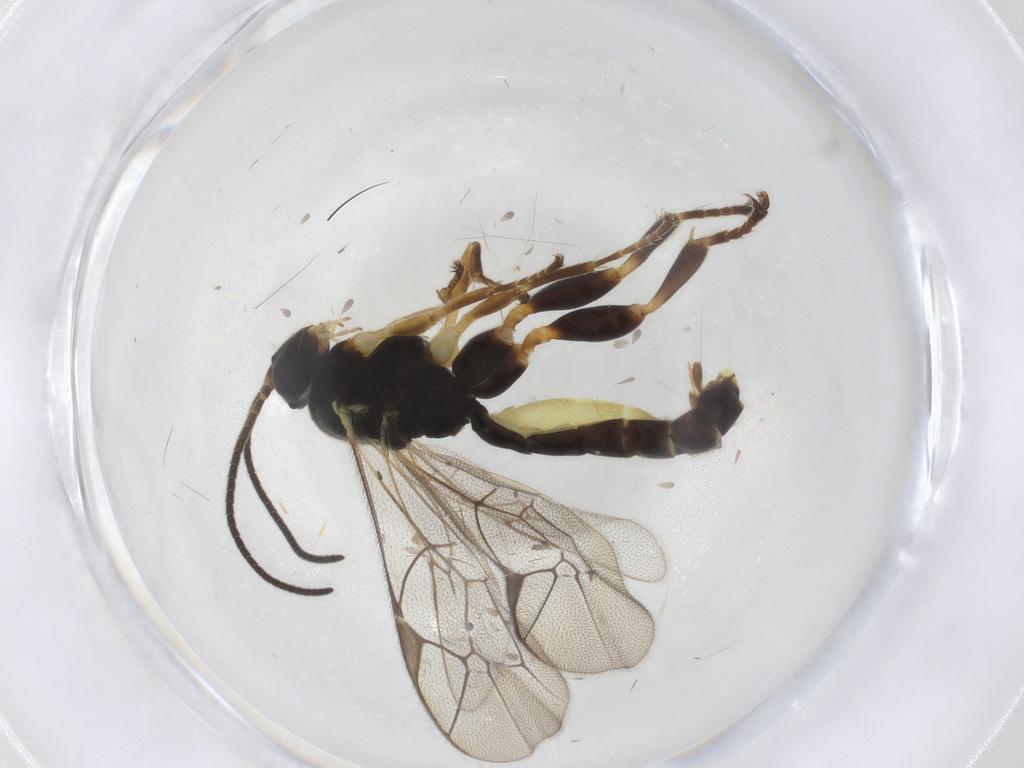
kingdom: Animalia
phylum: Arthropoda
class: Insecta
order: Hymenoptera
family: Ichneumonidae
